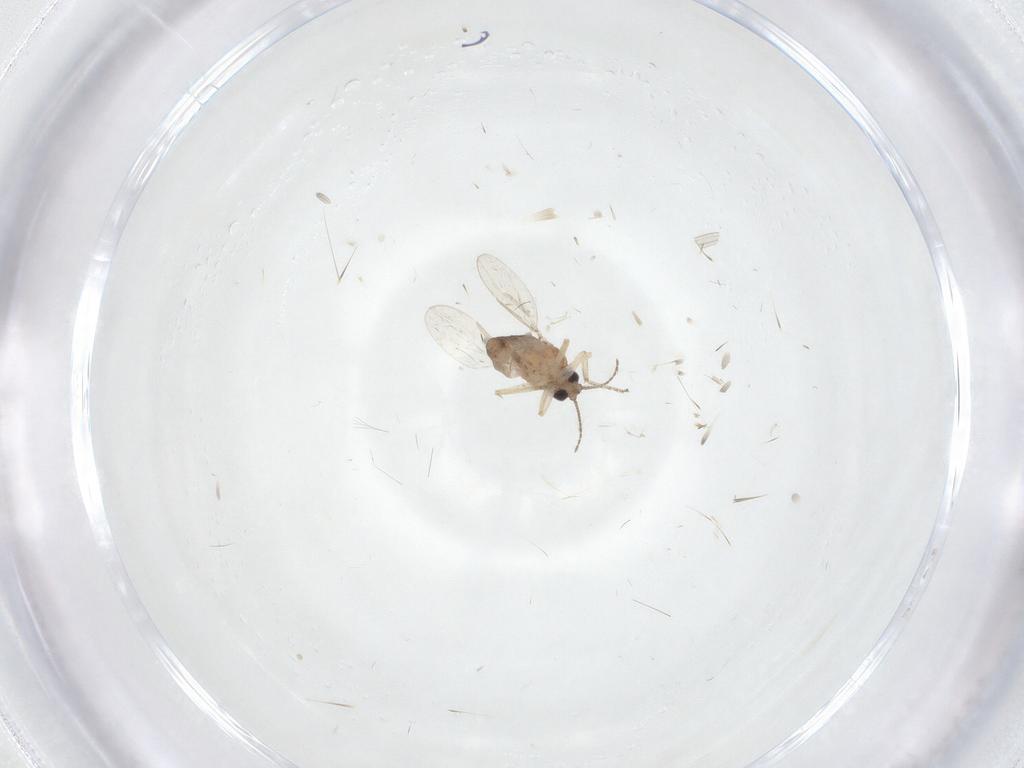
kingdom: Animalia
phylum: Arthropoda
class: Insecta
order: Diptera
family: Ceratopogonidae
